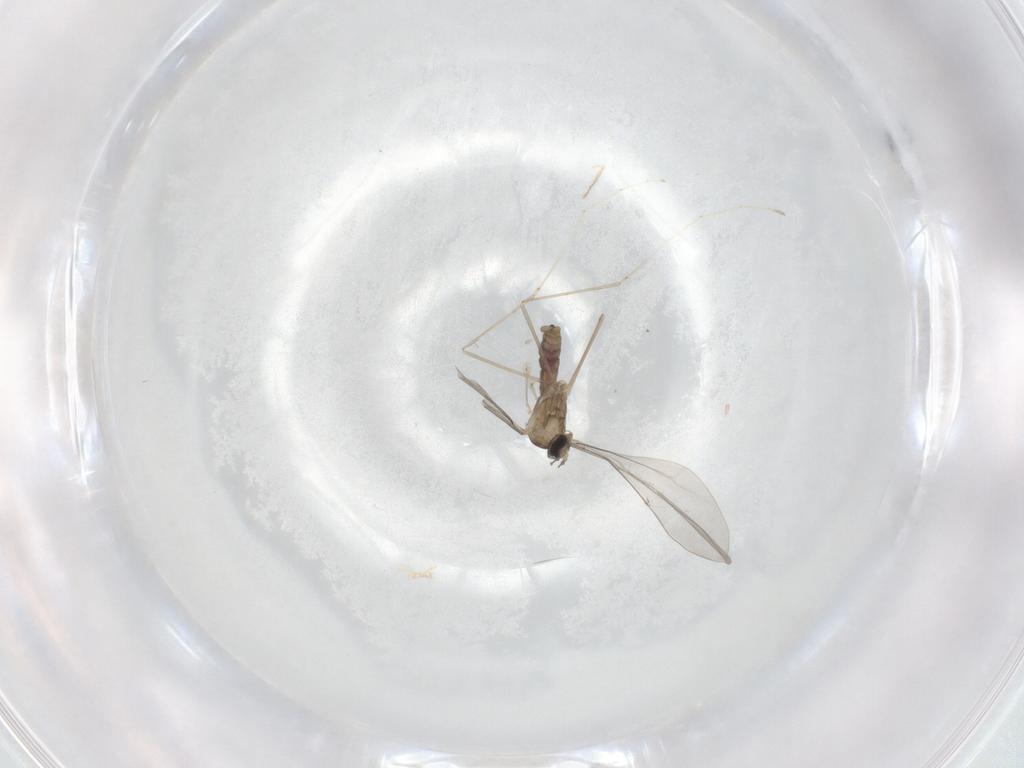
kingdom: Animalia
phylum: Arthropoda
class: Insecta
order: Diptera
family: Cecidomyiidae
